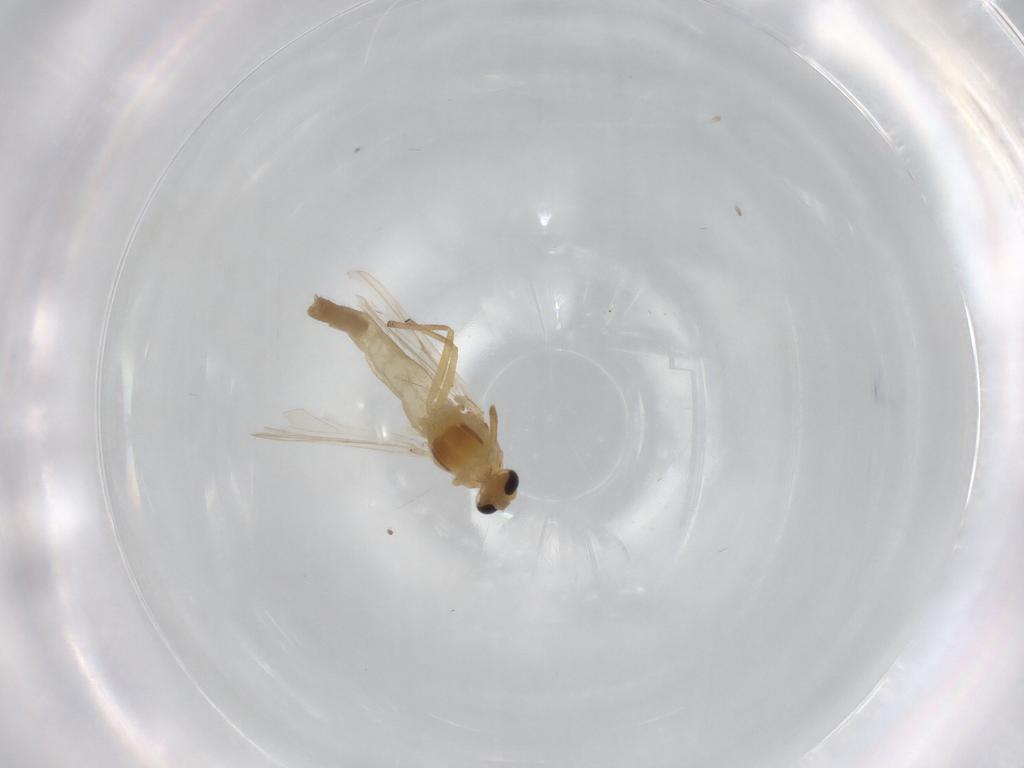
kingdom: Animalia
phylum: Arthropoda
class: Insecta
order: Diptera
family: Chironomidae
